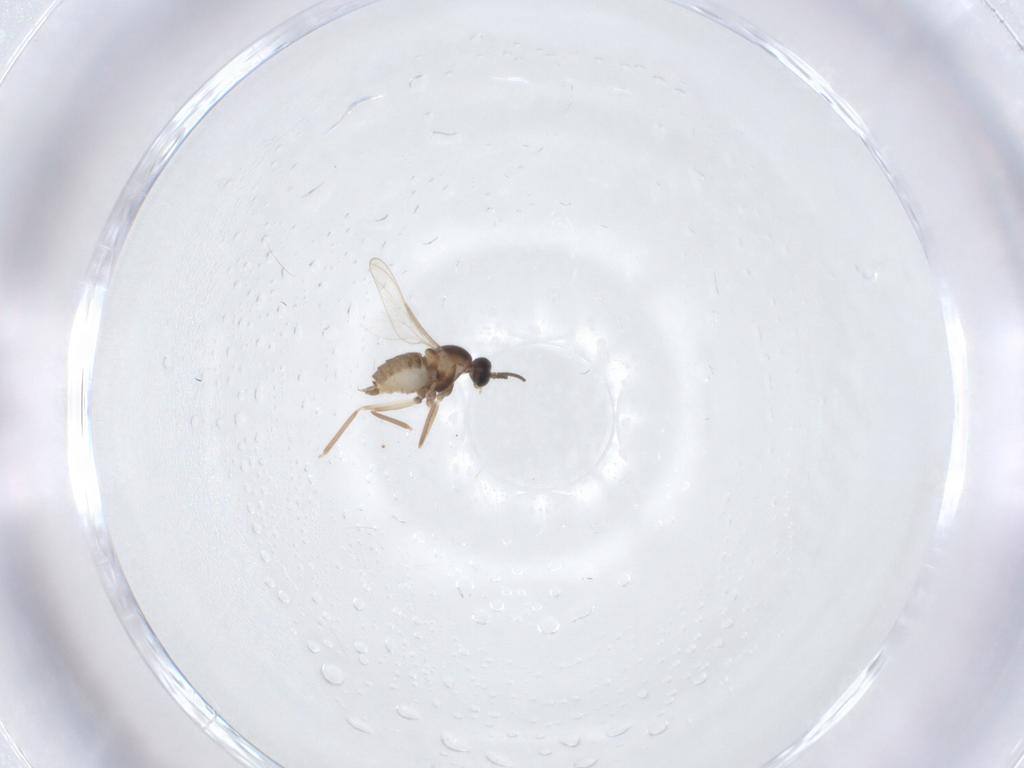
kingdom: Animalia
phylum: Arthropoda
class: Insecta
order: Diptera
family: Cecidomyiidae
